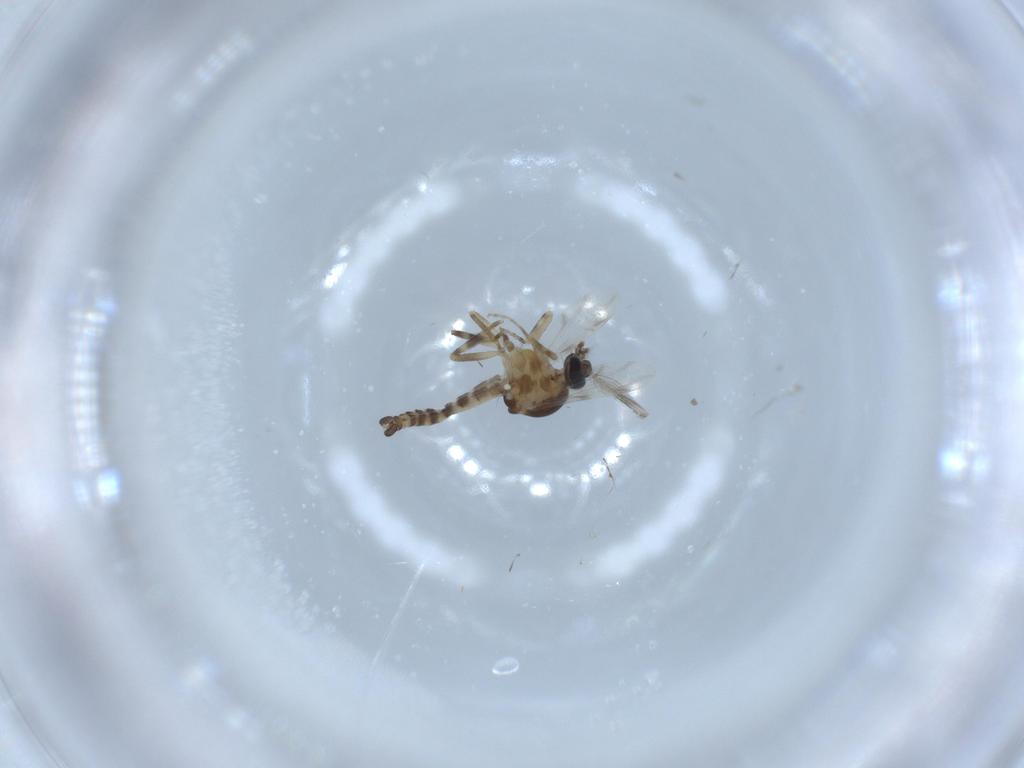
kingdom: Animalia
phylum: Arthropoda
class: Insecta
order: Diptera
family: Ceratopogonidae
